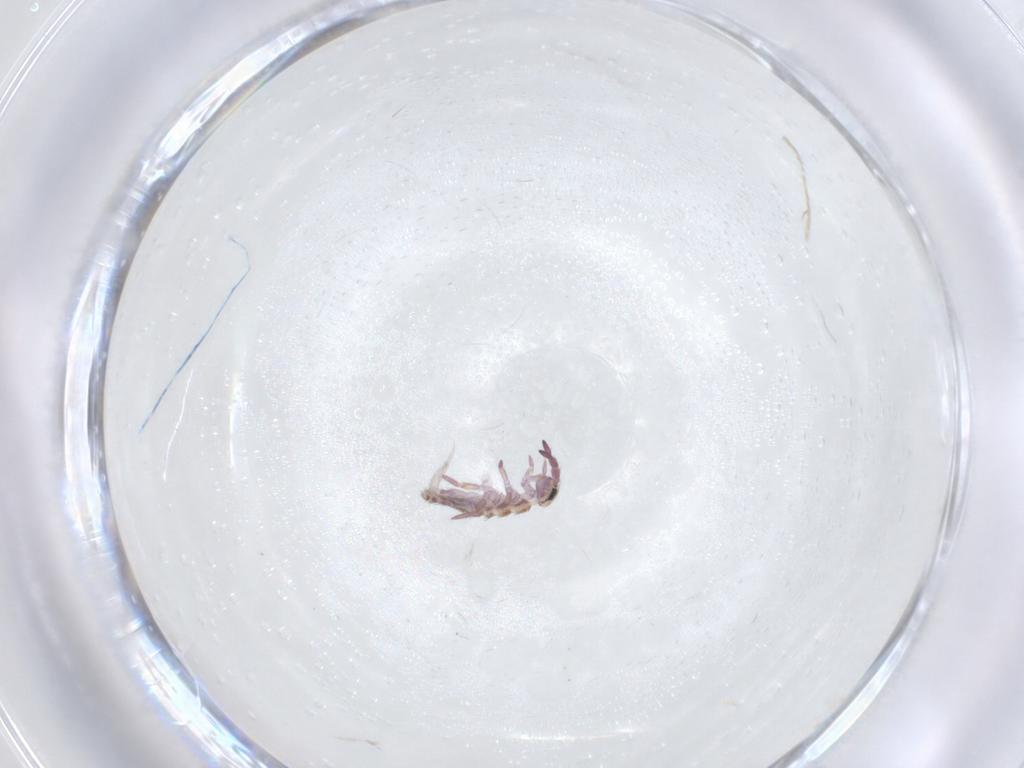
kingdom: Animalia
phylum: Arthropoda
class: Collembola
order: Entomobryomorpha
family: Isotomidae
